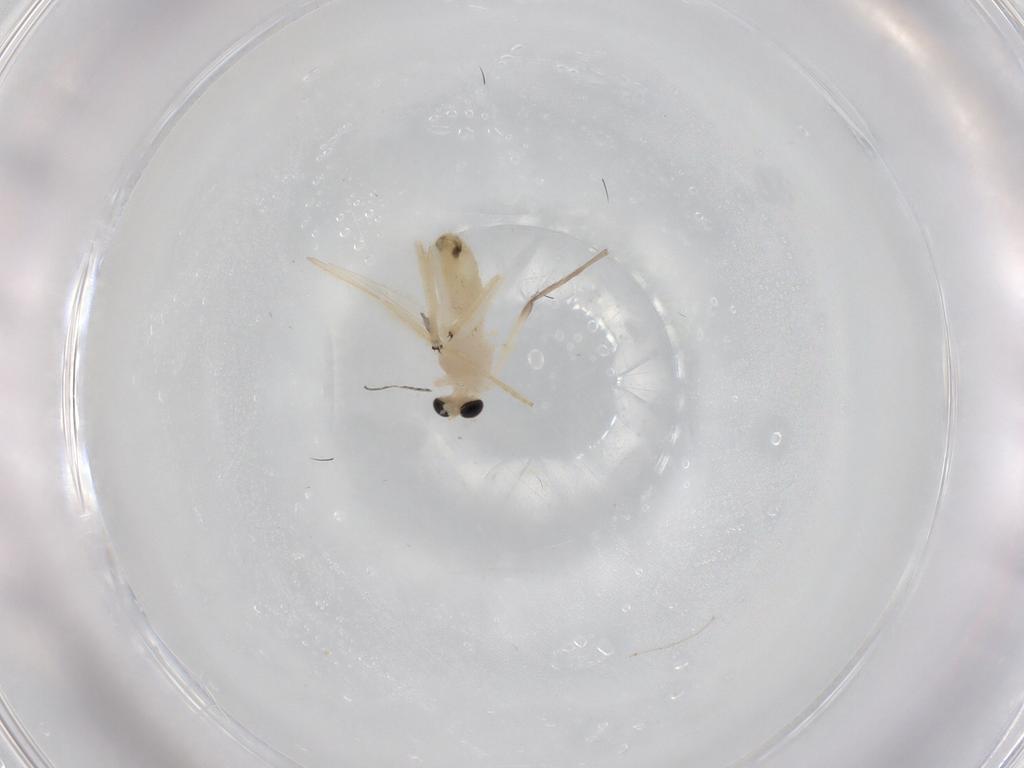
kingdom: Animalia
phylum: Arthropoda
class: Insecta
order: Diptera
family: Chironomidae
